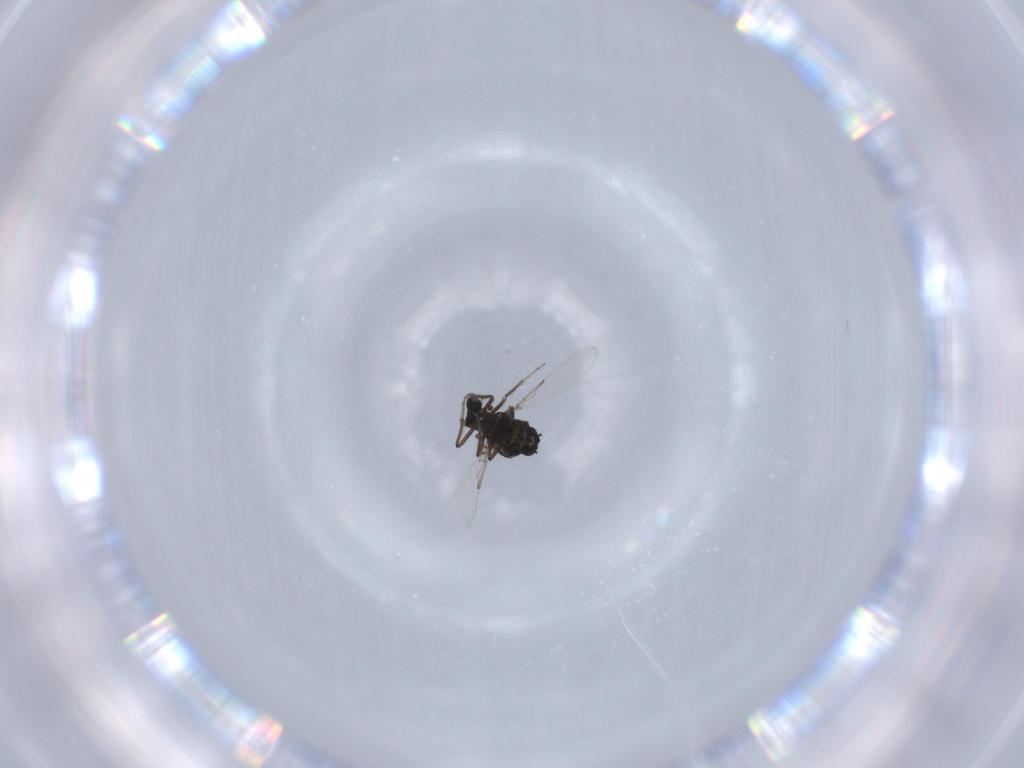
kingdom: Animalia
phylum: Arthropoda
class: Insecta
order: Diptera
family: Ceratopogonidae
